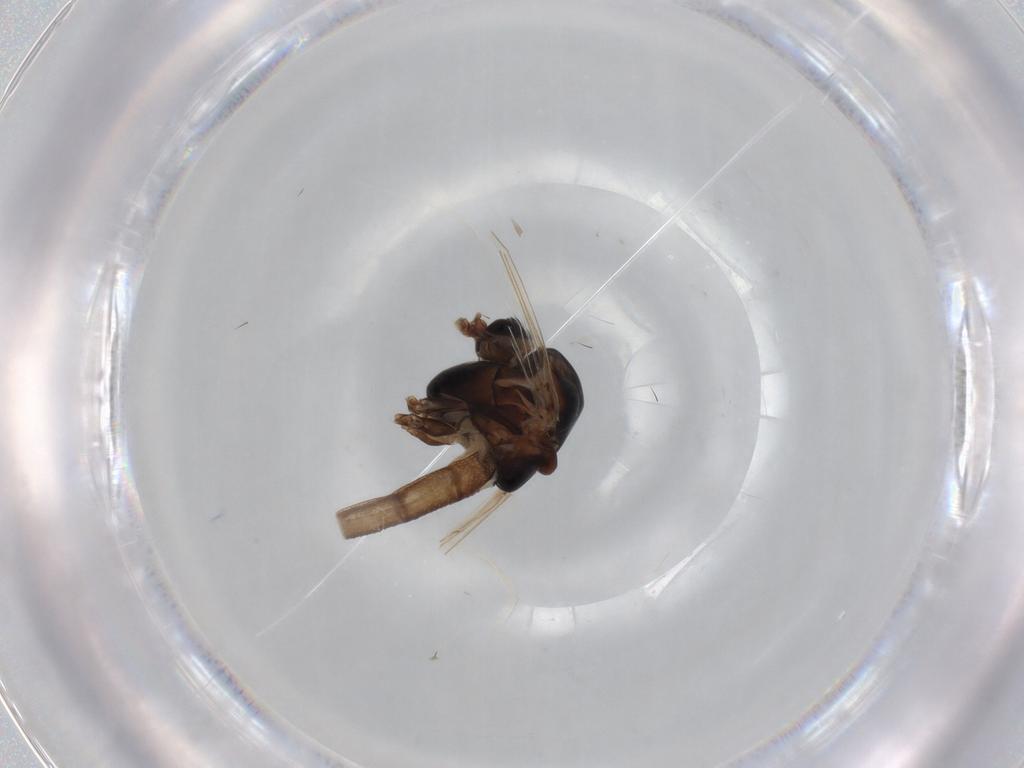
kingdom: Animalia
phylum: Arthropoda
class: Insecta
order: Diptera
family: Chironomidae
